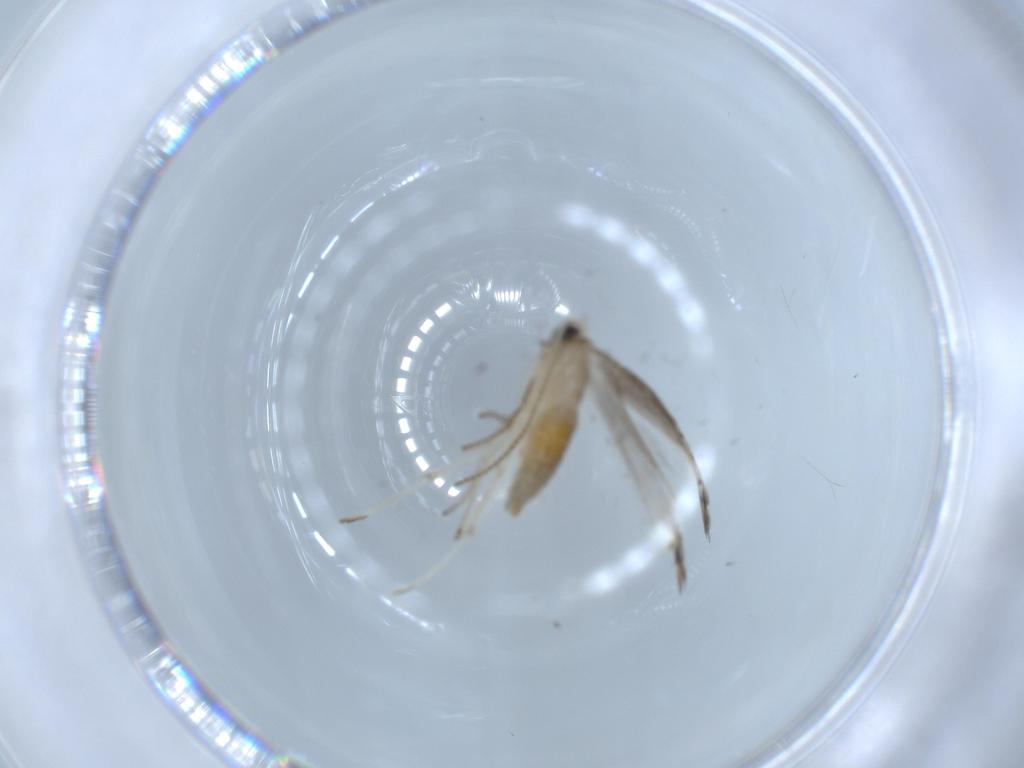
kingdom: Animalia
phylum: Arthropoda
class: Insecta
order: Lepidoptera
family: Gracillariidae
